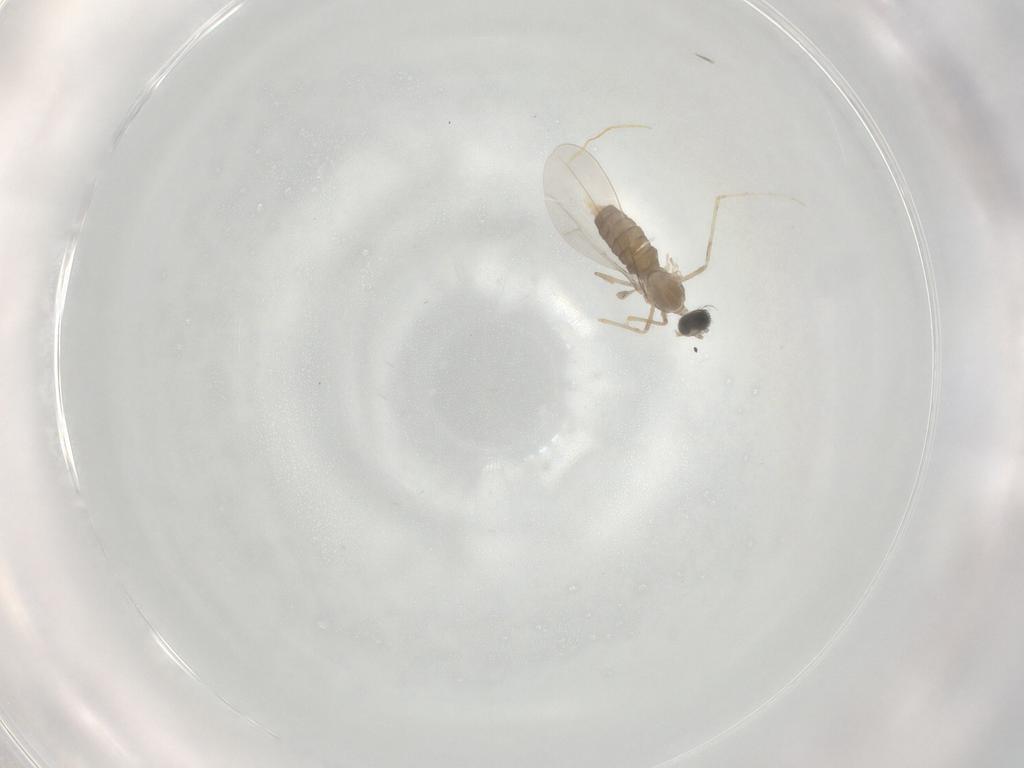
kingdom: Animalia
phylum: Arthropoda
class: Insecta
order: Diptera
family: Cecidomyiidae
